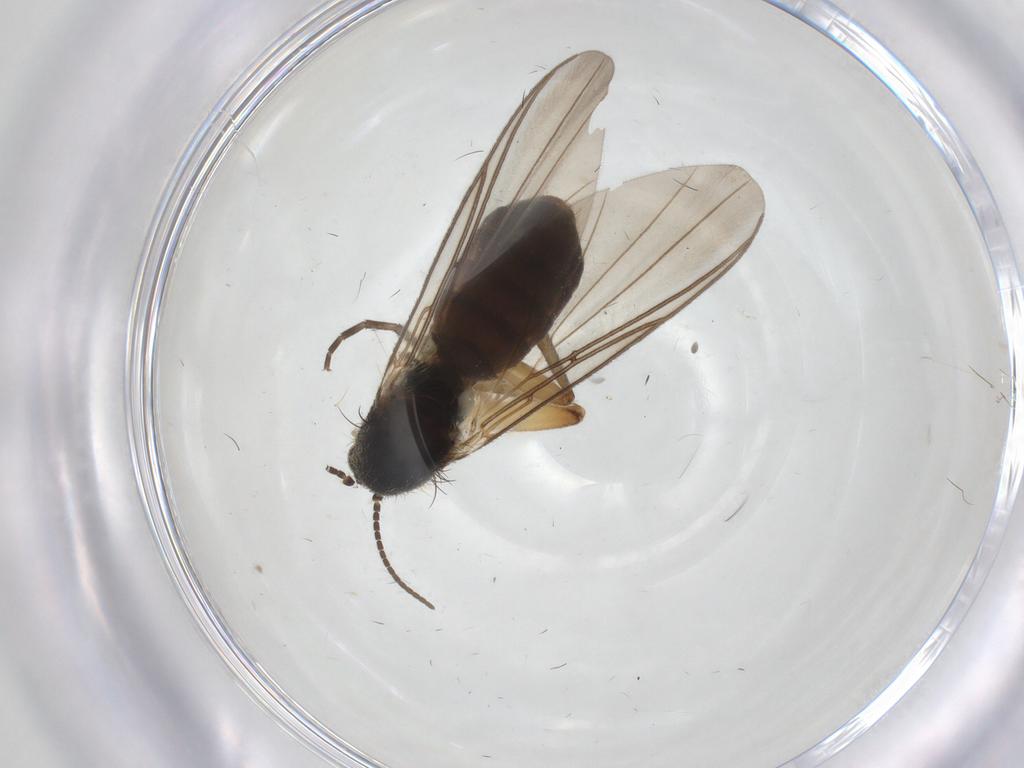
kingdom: Animalia
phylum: Arthropoda
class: Insecta
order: Diptera
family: Mycetophilidae
